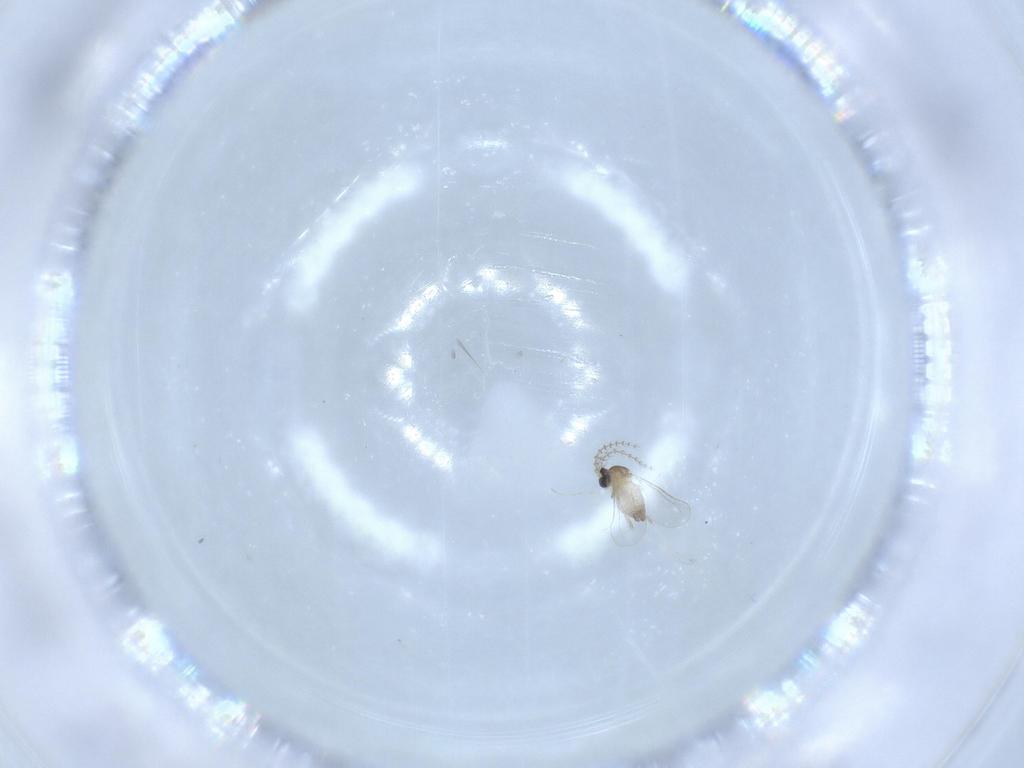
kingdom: Animalia
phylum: Arthropoda
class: Insecta
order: Diptera
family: Cecidomyiidae
